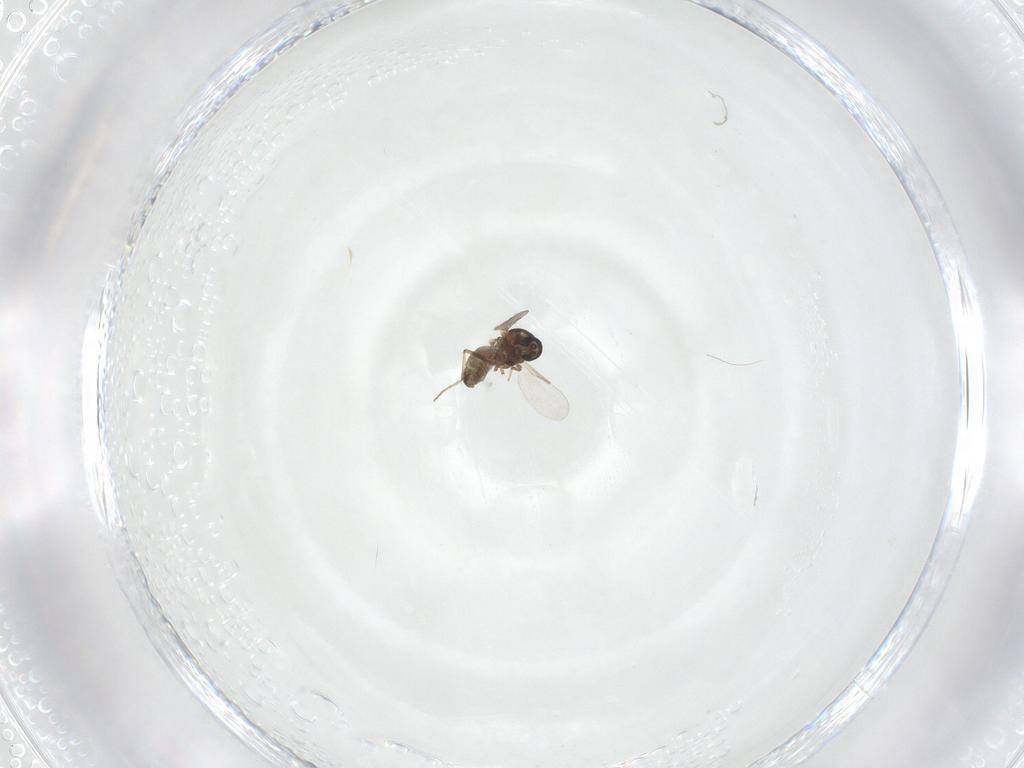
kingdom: Animalia
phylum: Arthropoda
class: Insecta
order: Diptera
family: Ceratopogonidae
